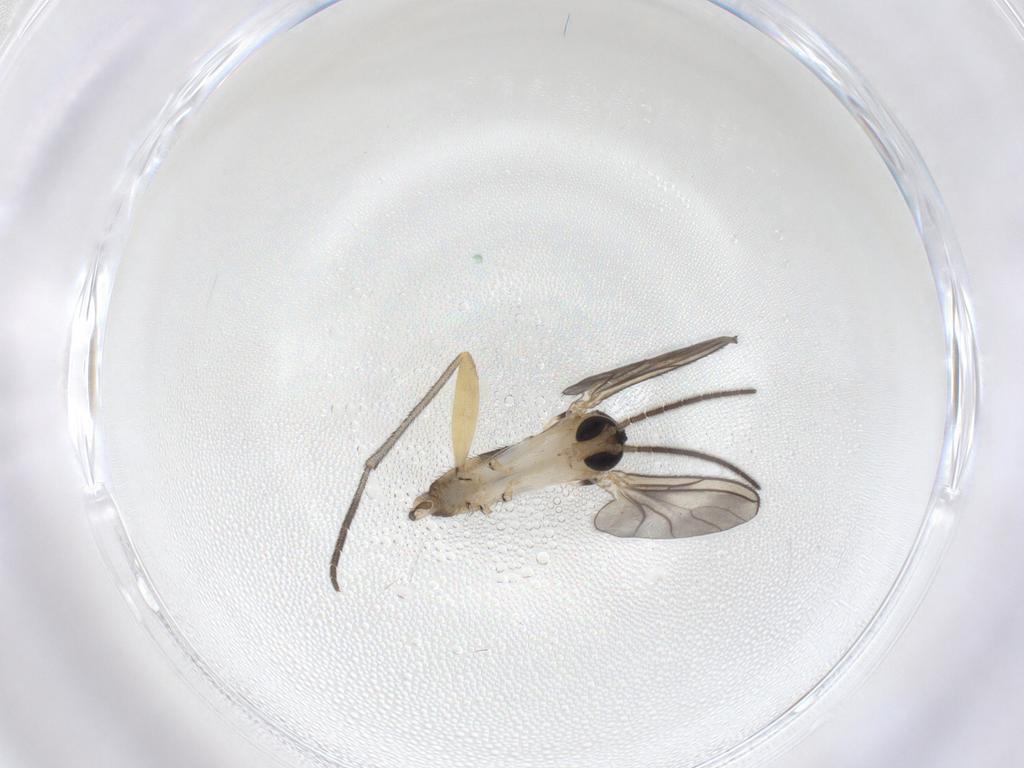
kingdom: Animalia
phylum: Arthropoda
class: Insecta
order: Diptera
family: Sciaridae
